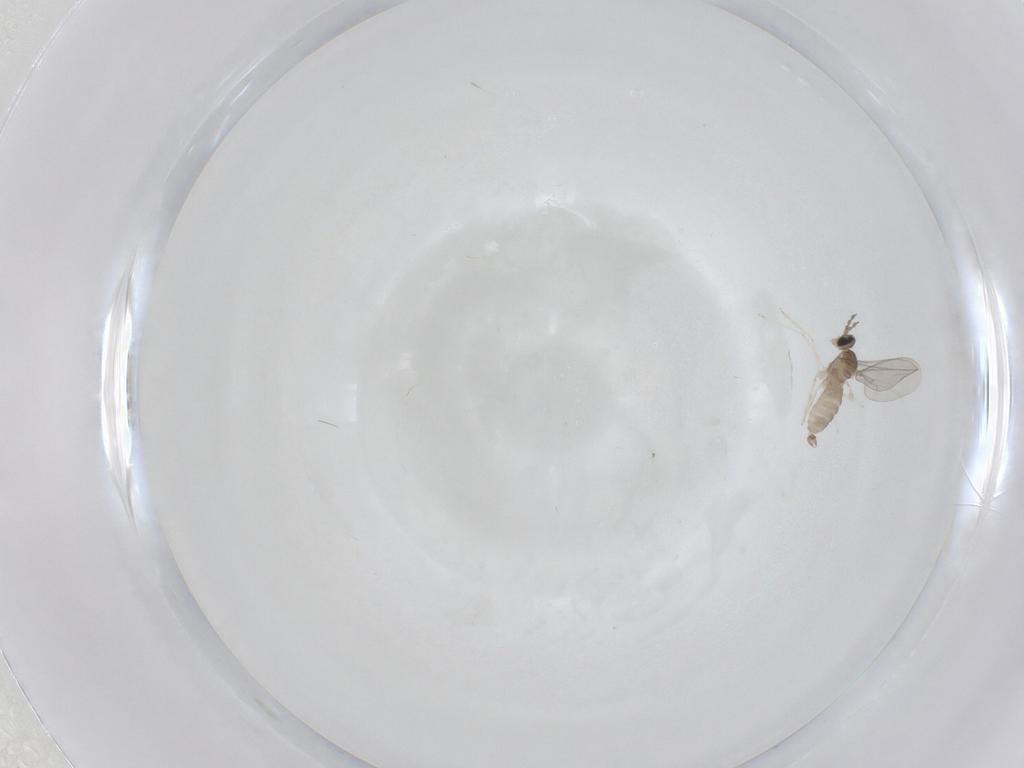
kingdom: Animalia
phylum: Arthropoda
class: Insecta
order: Diptera
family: Cecidomyiidae
